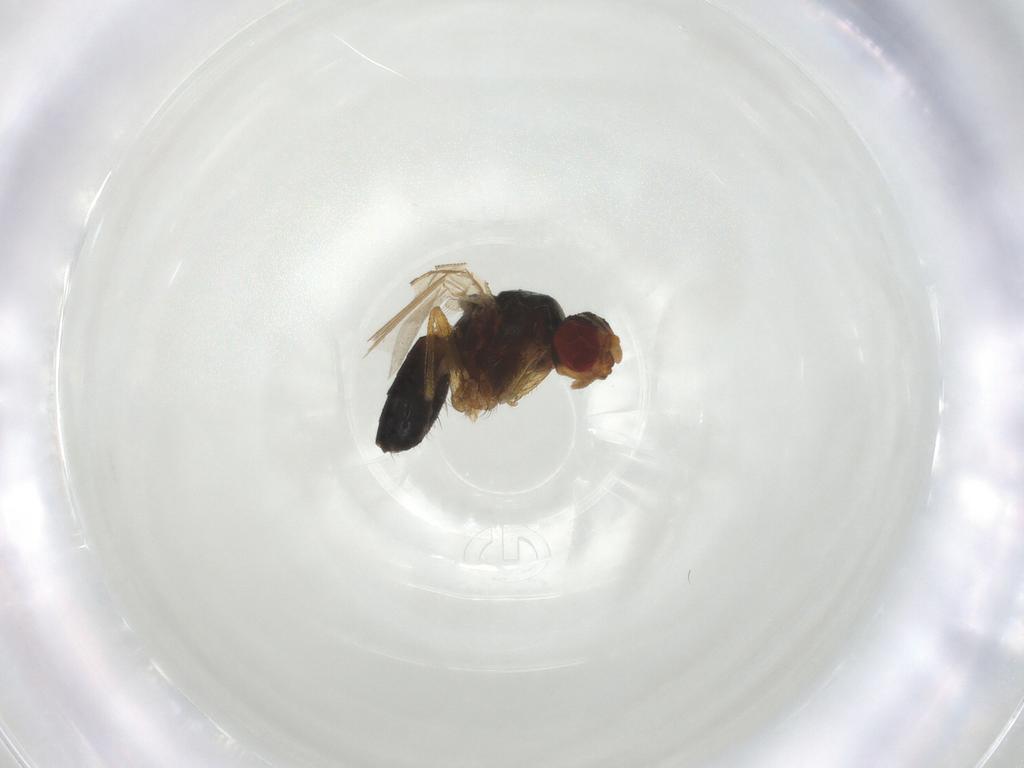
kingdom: Animalia
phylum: Arthropoda
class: Insecta
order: Diptera
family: Drosophilidae
